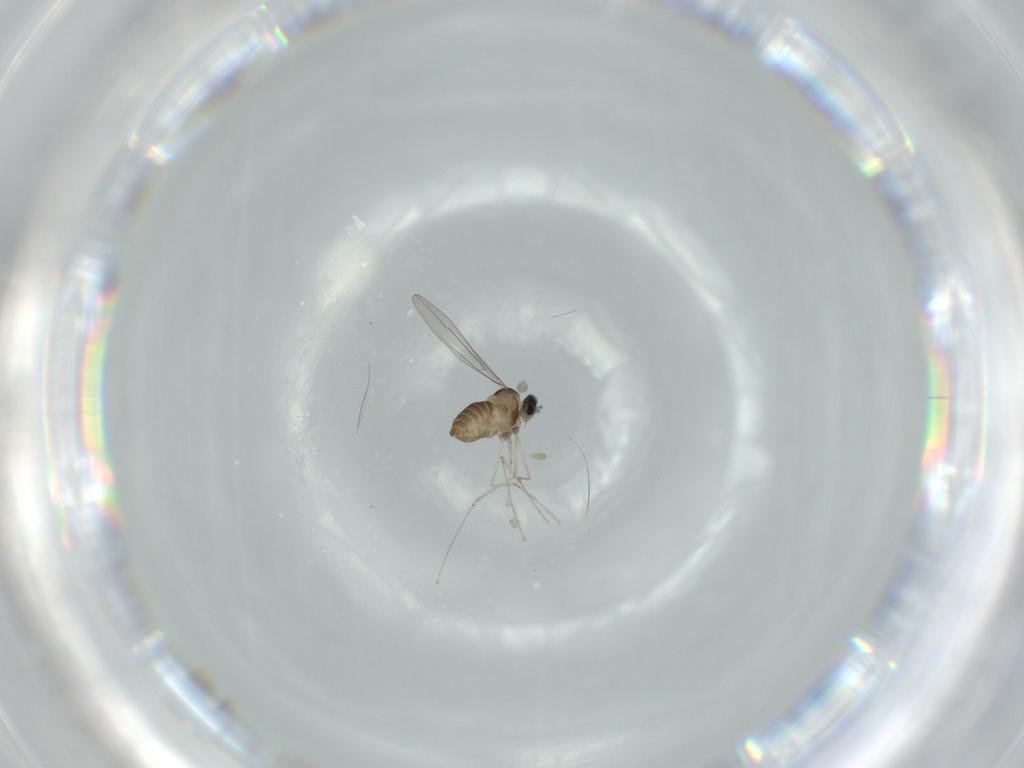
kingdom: Animalia
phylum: Arthropoda
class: Insecta
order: Diptera
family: Cecidomyiidae
